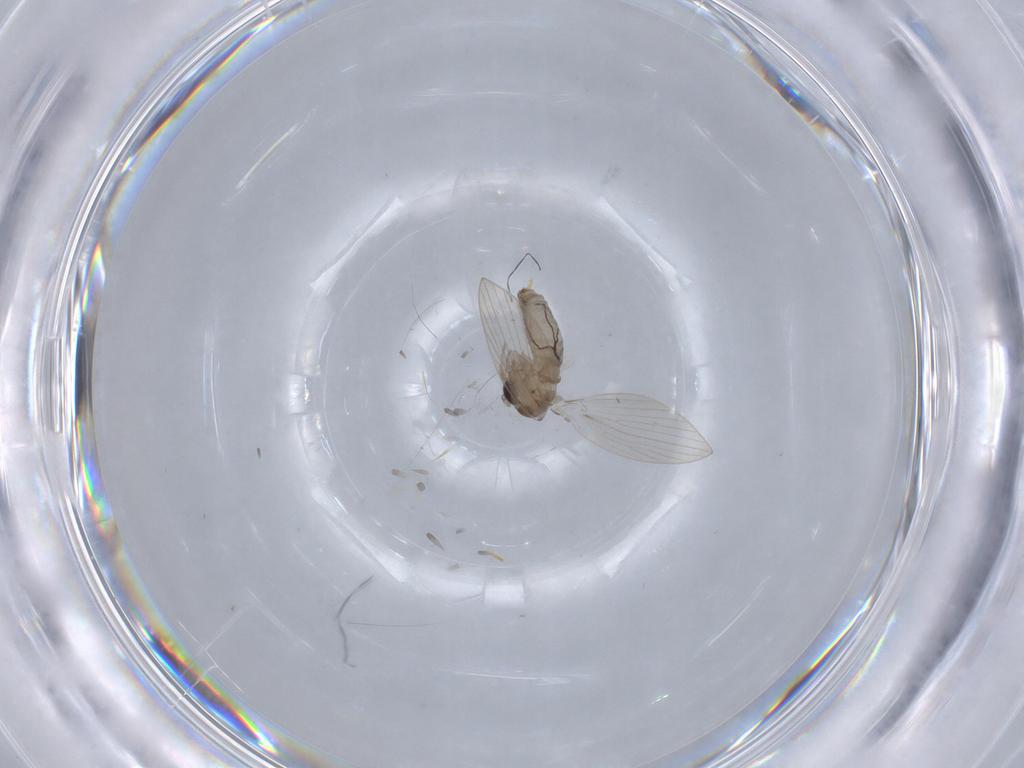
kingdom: Animalia
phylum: Arthropoda
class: Insecta
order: Diptera
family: Psychodidae
